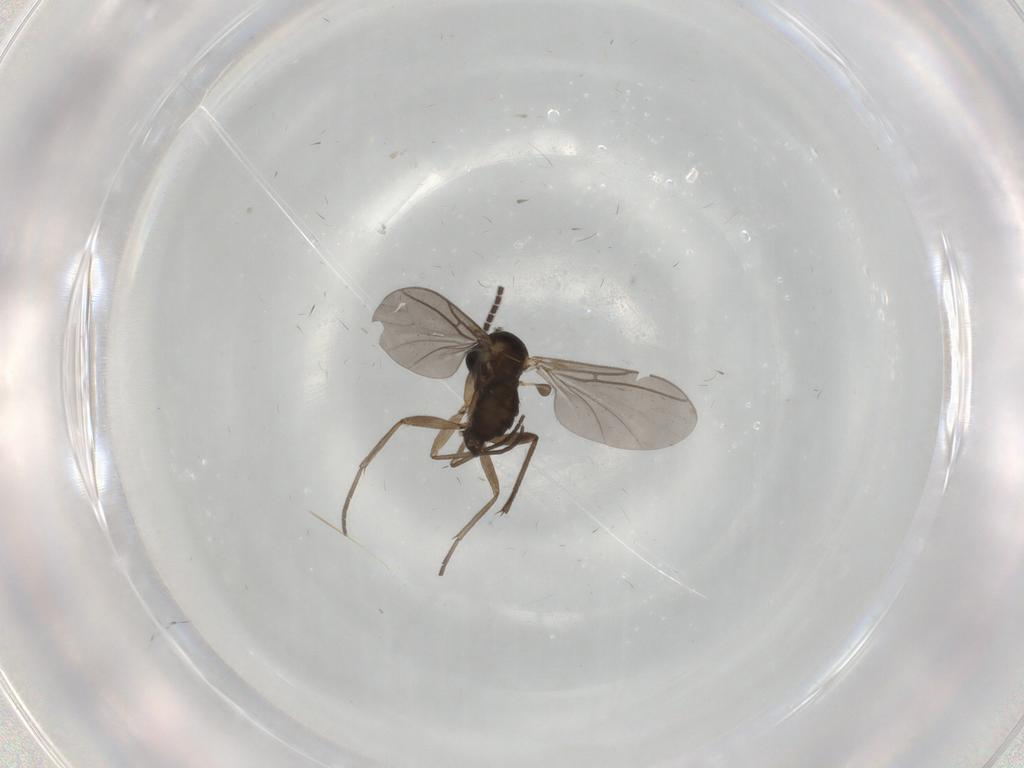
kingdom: Animalia
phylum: Arthropoda
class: Insecta
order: Diptera
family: Sciaridae
